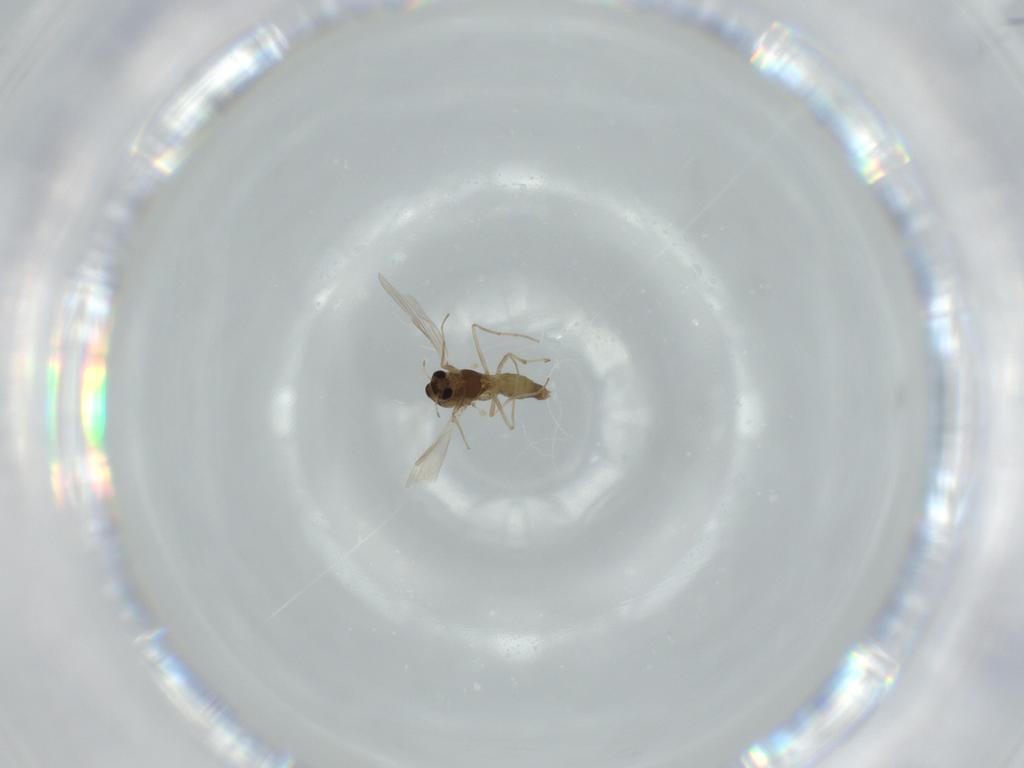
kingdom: Animalia
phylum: Arthropoda
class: Insecta
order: Diptera
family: Chironomidae
